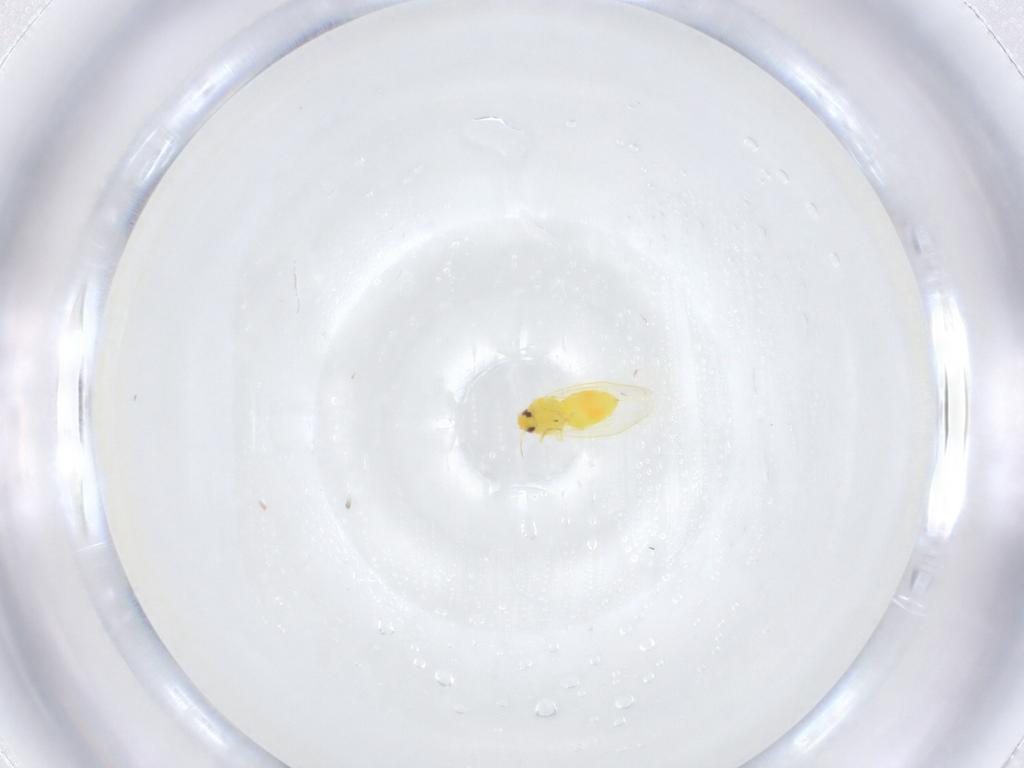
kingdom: Animalia
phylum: Arthropoda
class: Insecta
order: Hemiptera
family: Aleyrodidae
